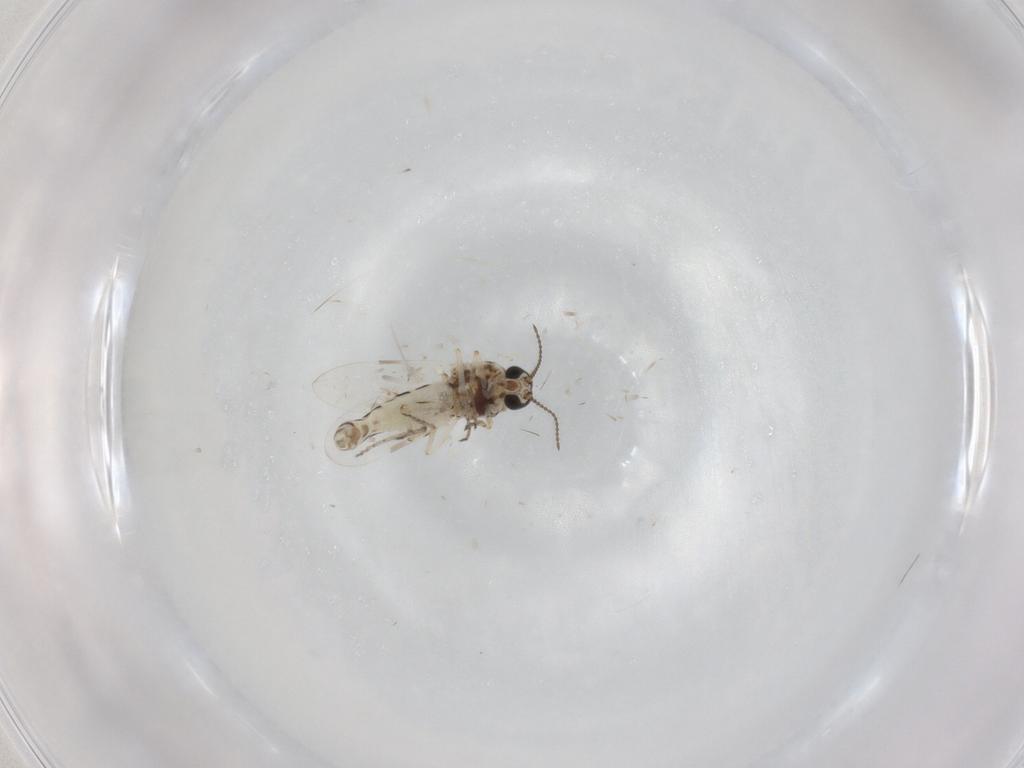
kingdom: Animalia
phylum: Arthropoda
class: Insecta
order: Diptera
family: Ceratopogonidae
